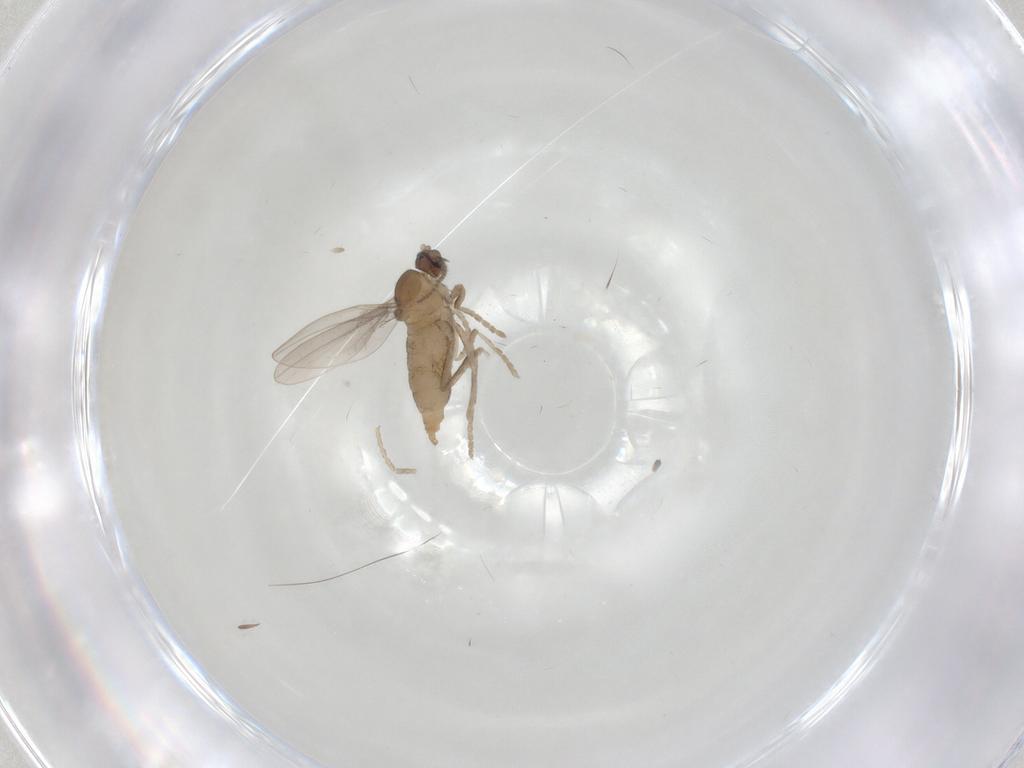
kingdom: Animalia
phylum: Arthropoda
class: Insecta
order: Diptera
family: Cecidomyiidae
